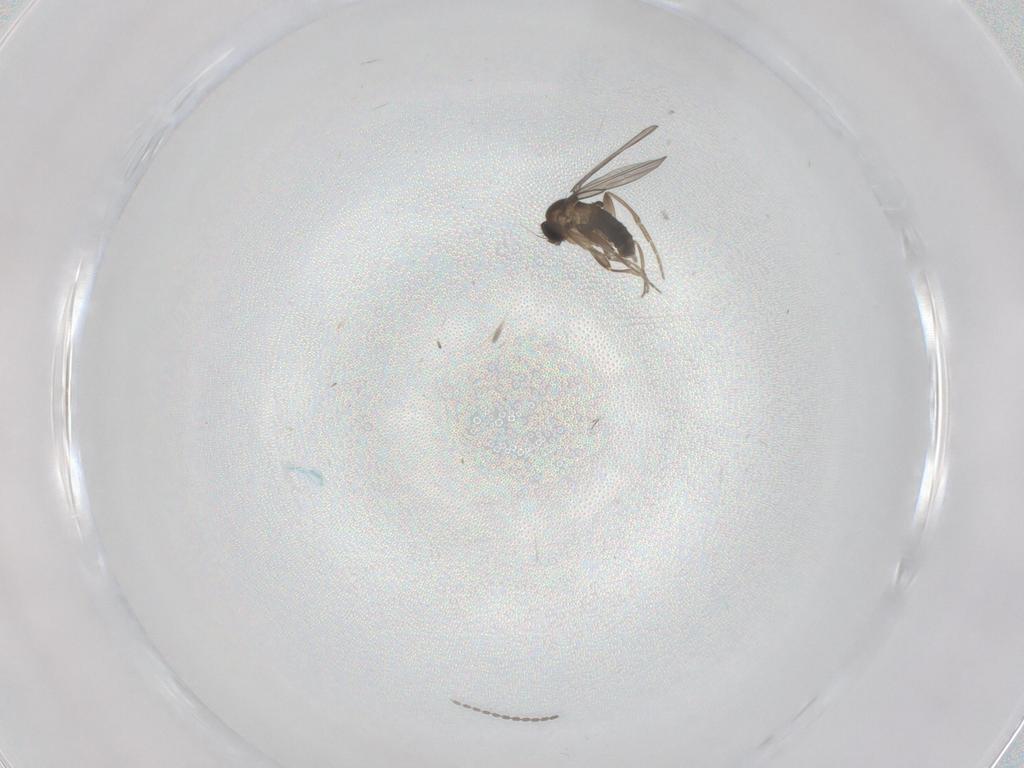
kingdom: Animalia
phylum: Arthropoda
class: Insecta
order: Diptera
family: Phoridae
